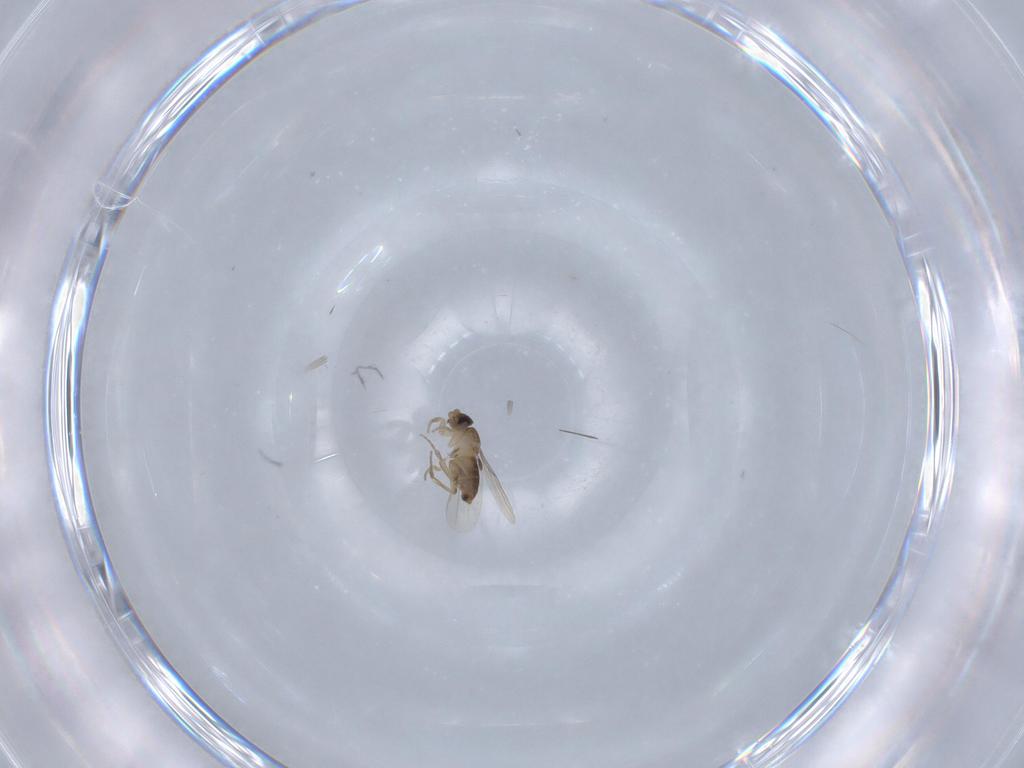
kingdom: Animalia
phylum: Arthropoda
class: Insecta
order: Diptera
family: Phoridae
